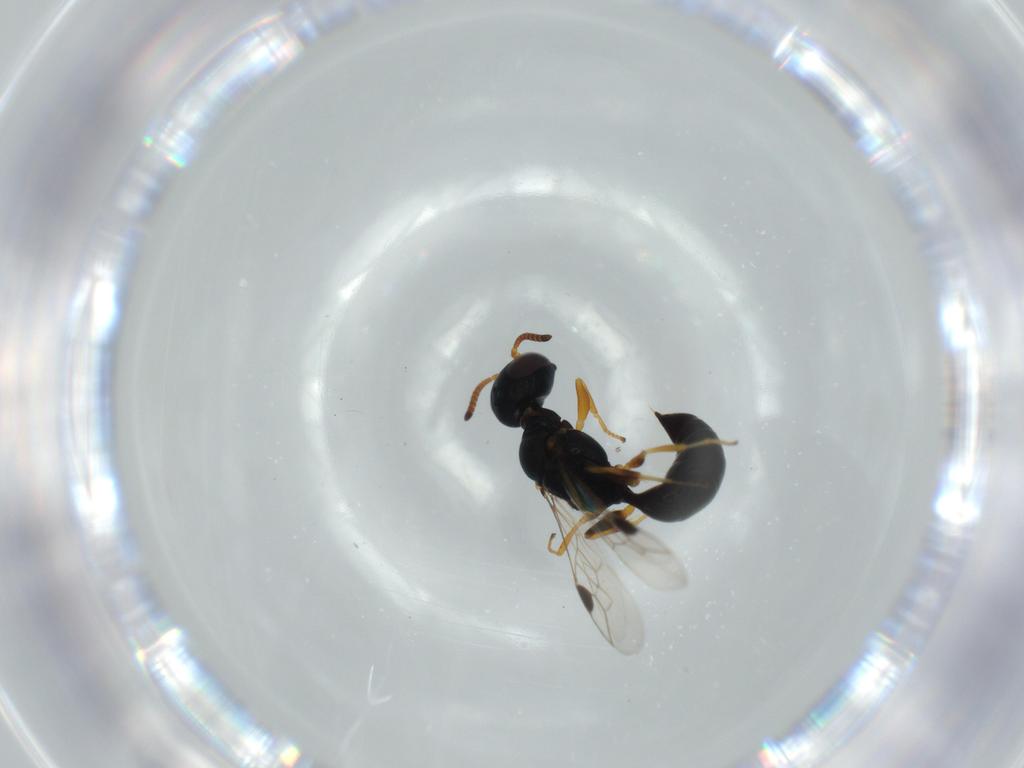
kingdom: Animalia
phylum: Arthropoda
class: Insecta
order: Hymenoptera
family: Pemphredonidae
